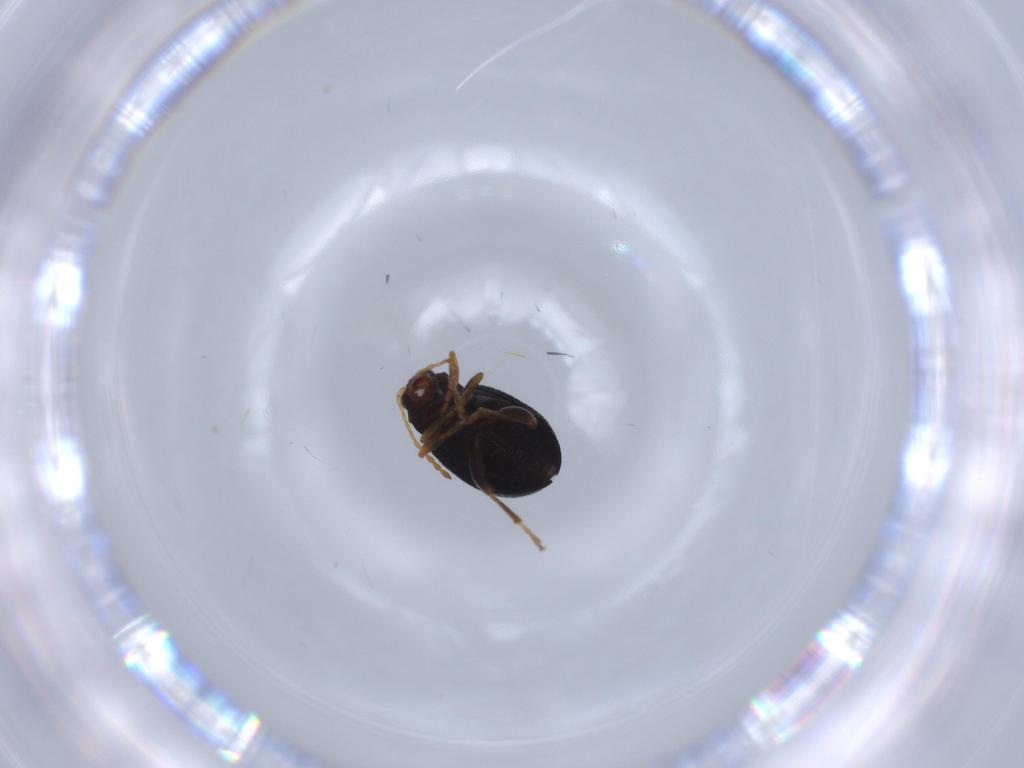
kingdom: Animalia
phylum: Arthropoda
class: Insecta
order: Coleoptera
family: Chrysomelidae
